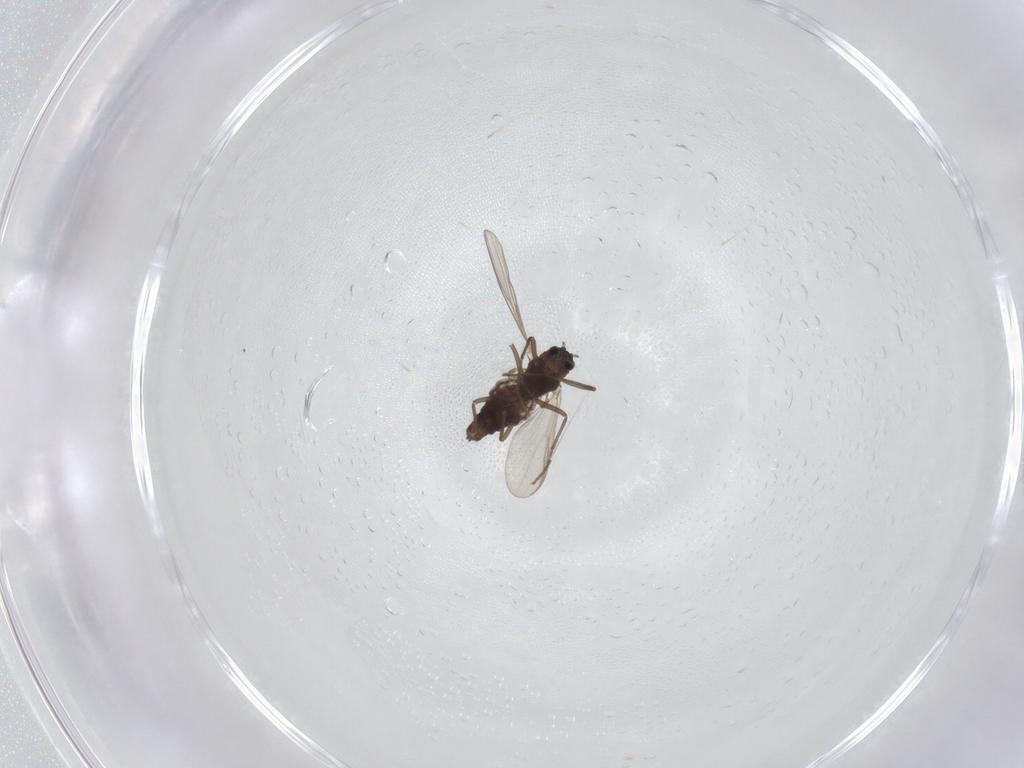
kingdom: Animalia
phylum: Arthropoda
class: Insecta
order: Diptera
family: Chironomidae
